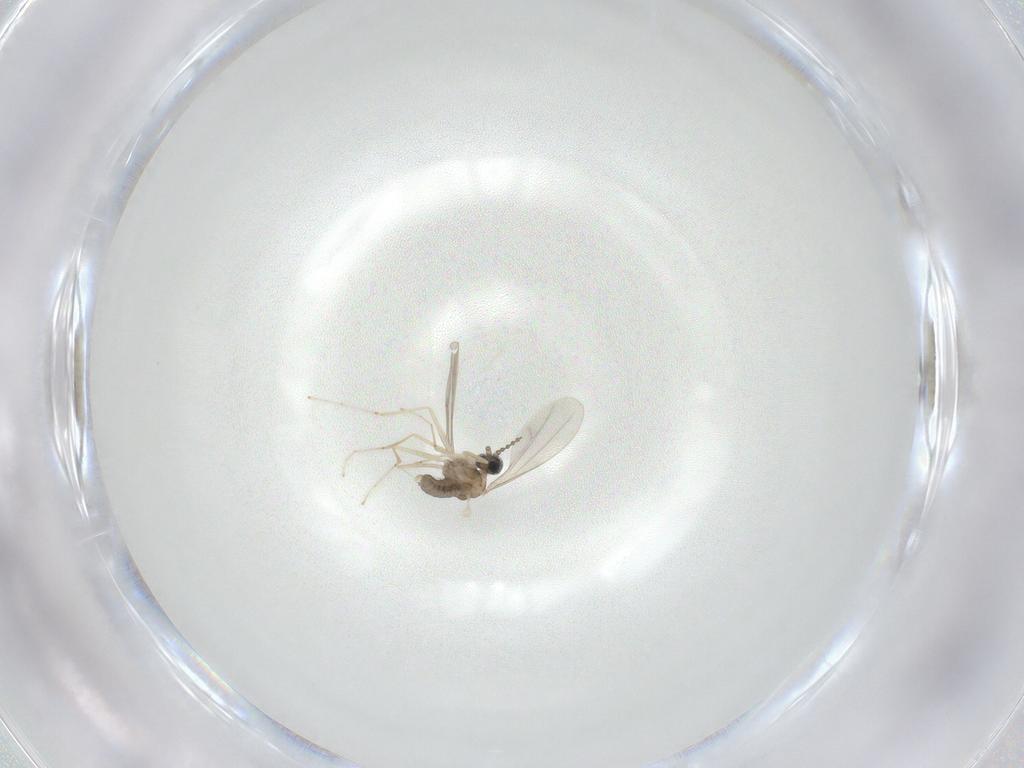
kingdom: Animalia
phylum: Arthropoda
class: Insecta
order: Diptera
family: Cecidomyiidae
